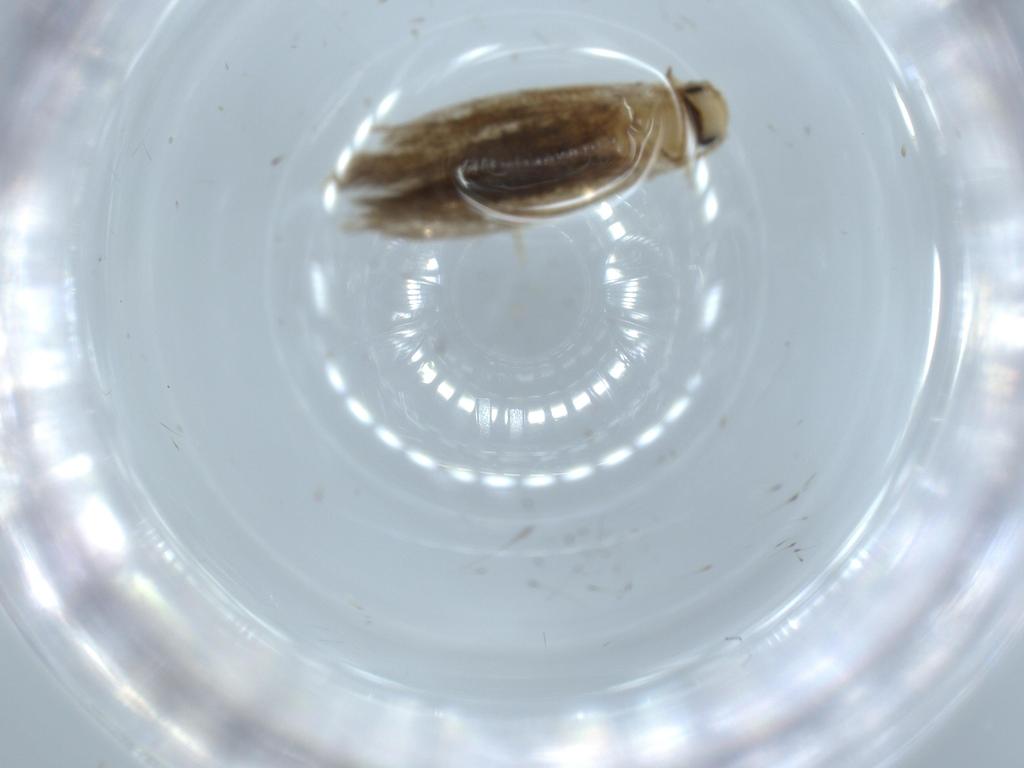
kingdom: Animalia
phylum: Arthropoda
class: Insecta
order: Lepidoptera
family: Tineidae
